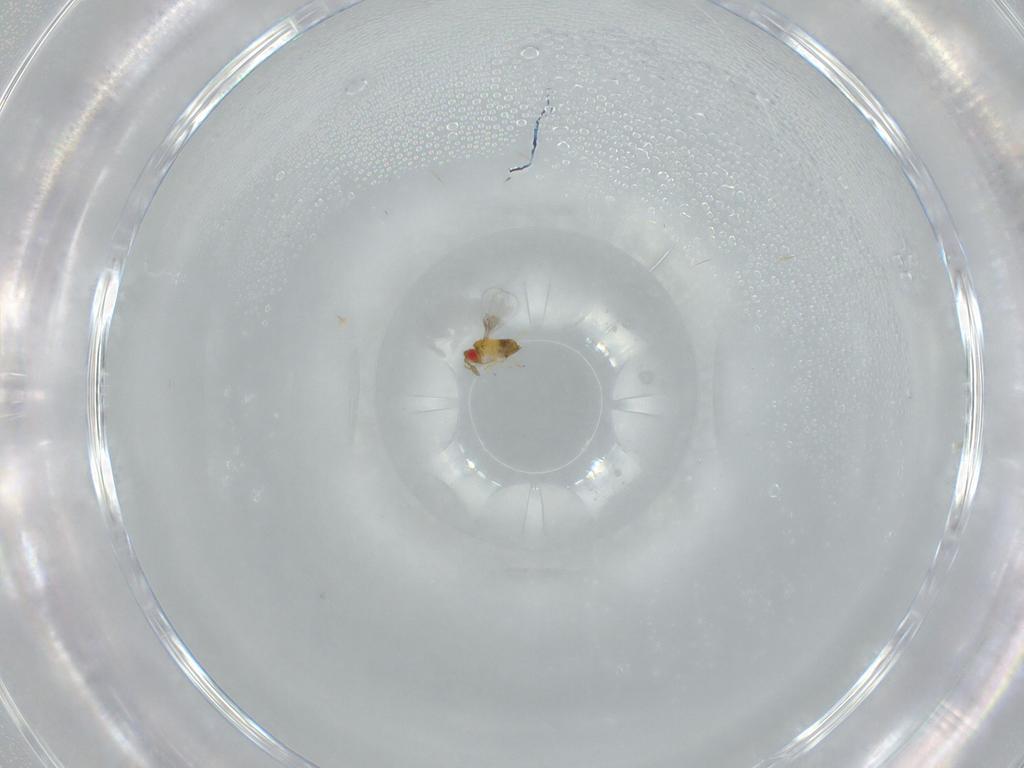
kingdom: Animalia
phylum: Arthropoda
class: Insecta
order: Hymenoptera
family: Trichogrammatidae
